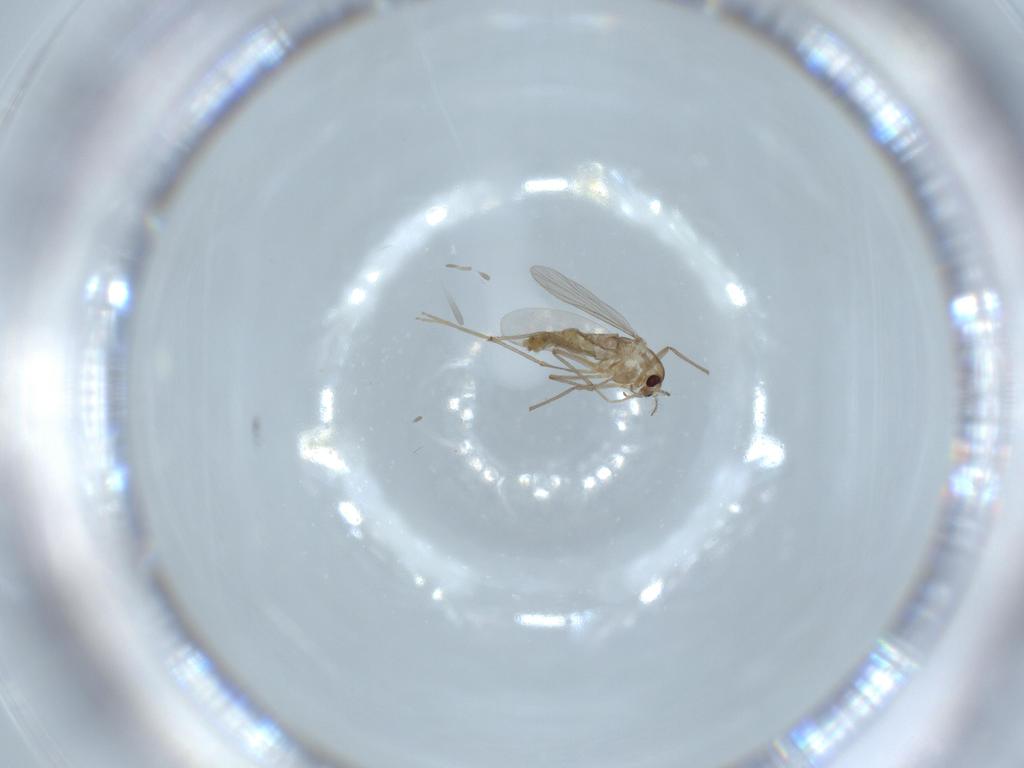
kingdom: Animalia
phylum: Arthropoda
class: Insecta
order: Diptera
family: Chironomidae
